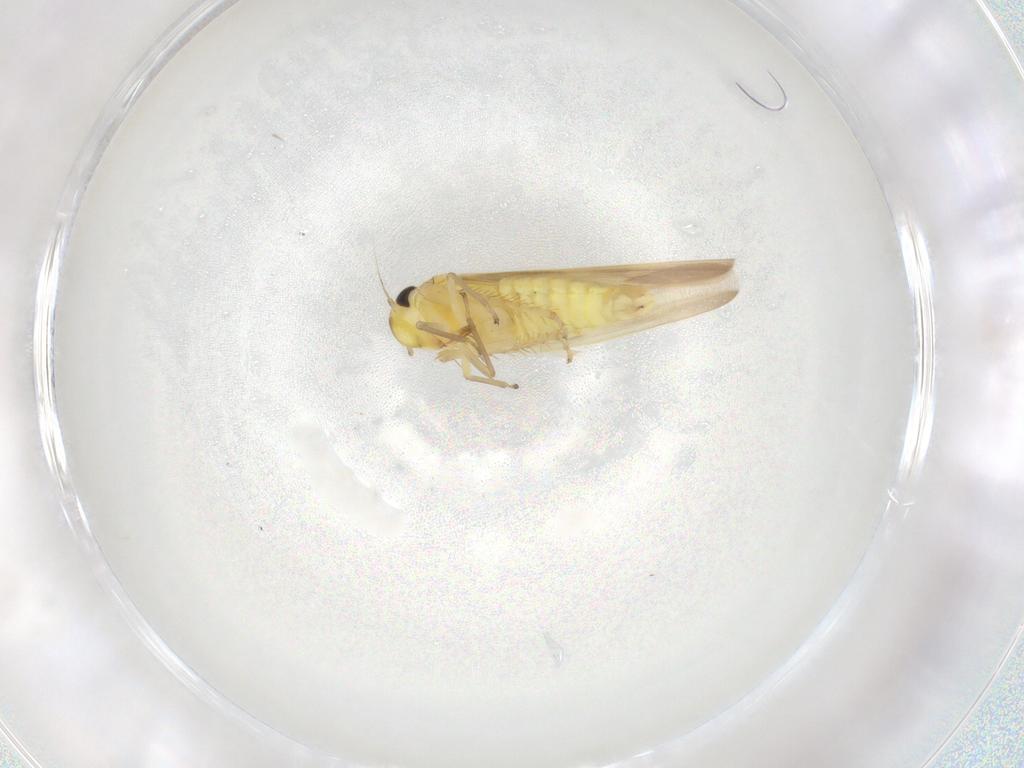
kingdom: Animalia
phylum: Arthropoda
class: Insecta
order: Hemiptera
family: Cicadellidae
